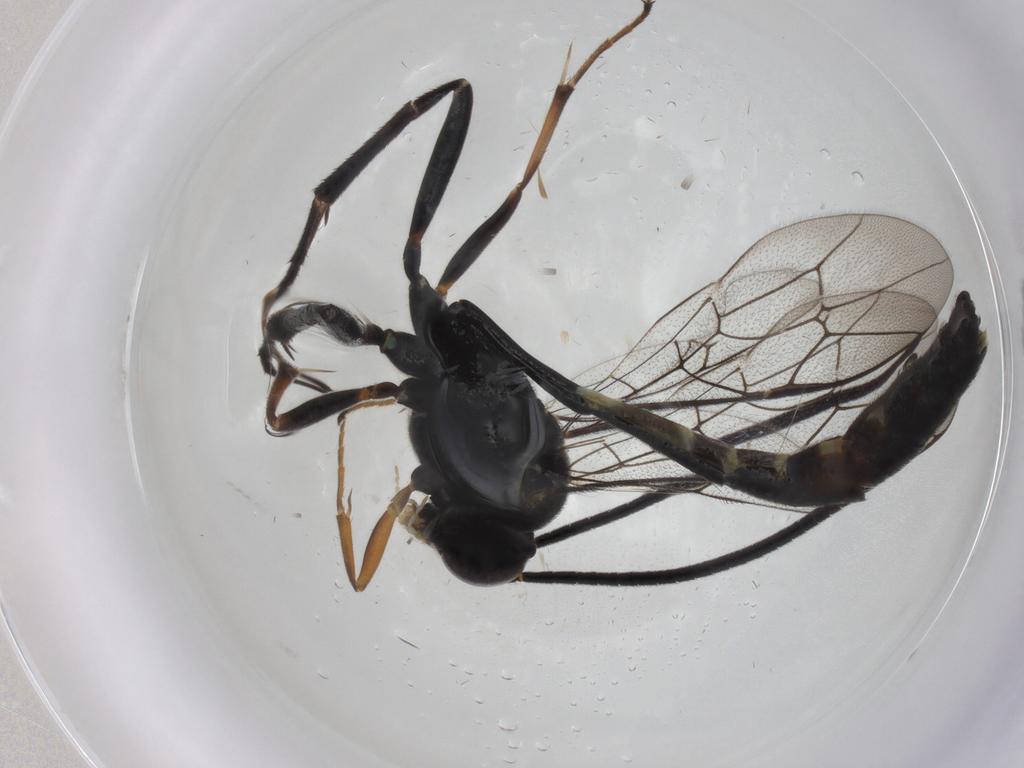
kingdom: Animalia
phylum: Arthropoda
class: Insecta
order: Hymenoptera
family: Ichneumonidae
